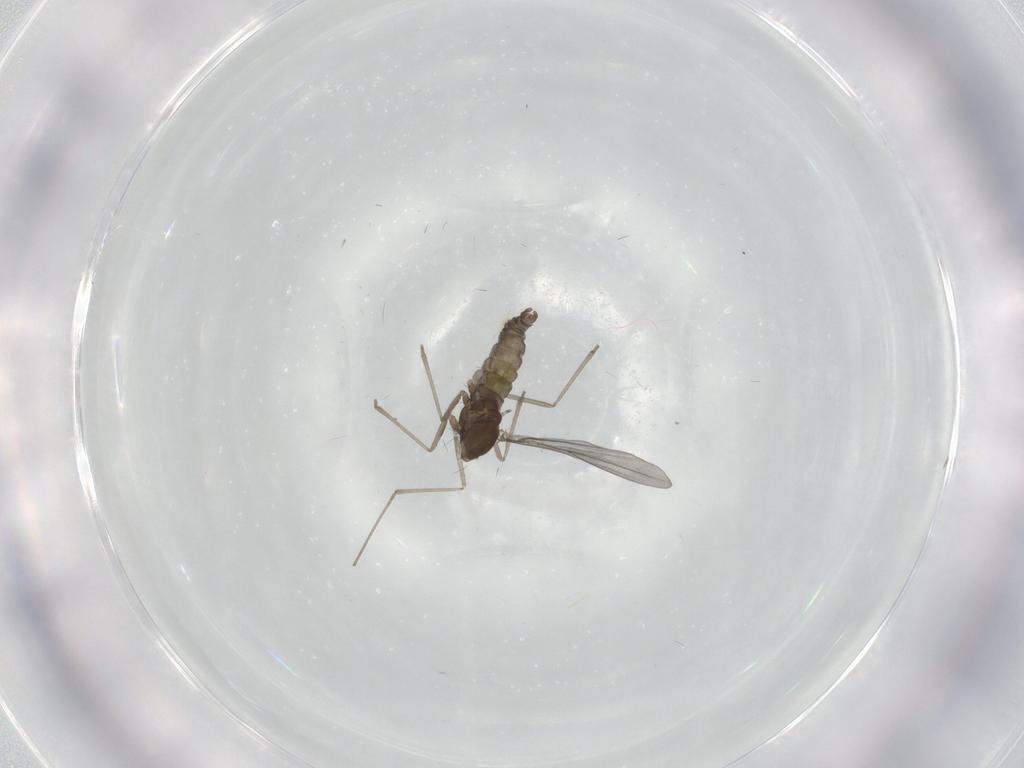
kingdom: Animalia
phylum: Arthropoda
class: Insecta
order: Diptera
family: Cecidomyiidae
